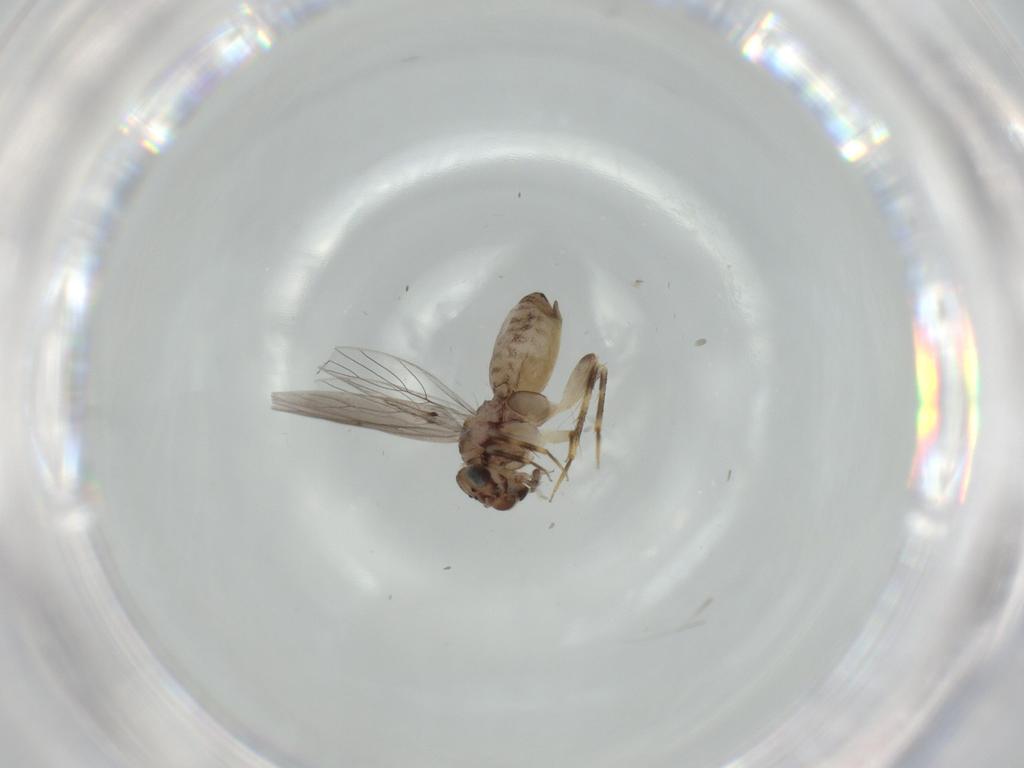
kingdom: Animalia
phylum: Arthropoda
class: Insecta
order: Psocodea
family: Lepidopsocidae
